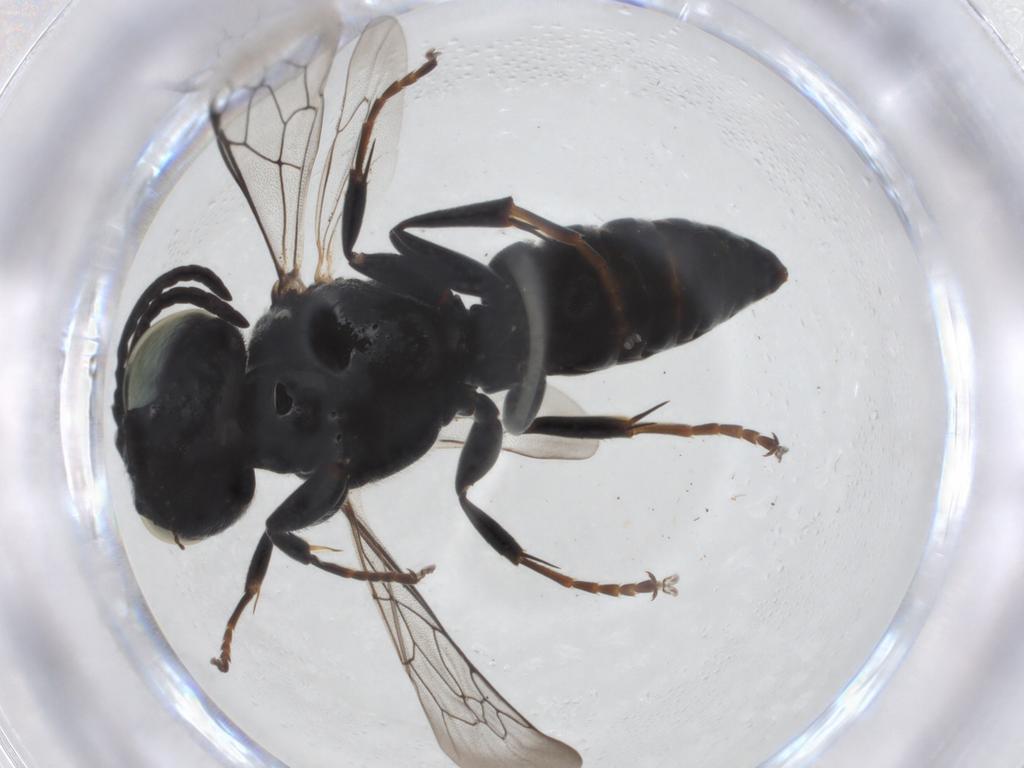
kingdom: Animalia
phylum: Arthropoda
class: Insecta
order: Hymenoptera
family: Crabronidae
